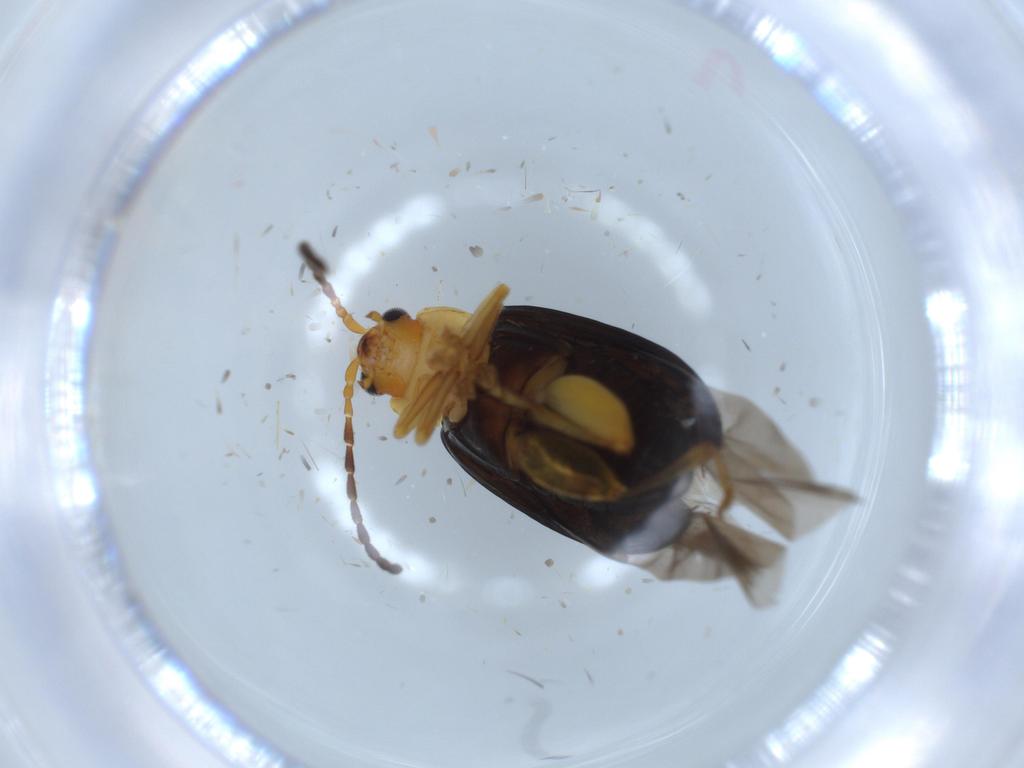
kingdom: Animalia
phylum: Arthropoda
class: Insecta
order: Coleoptera
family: Chrysomelidae
